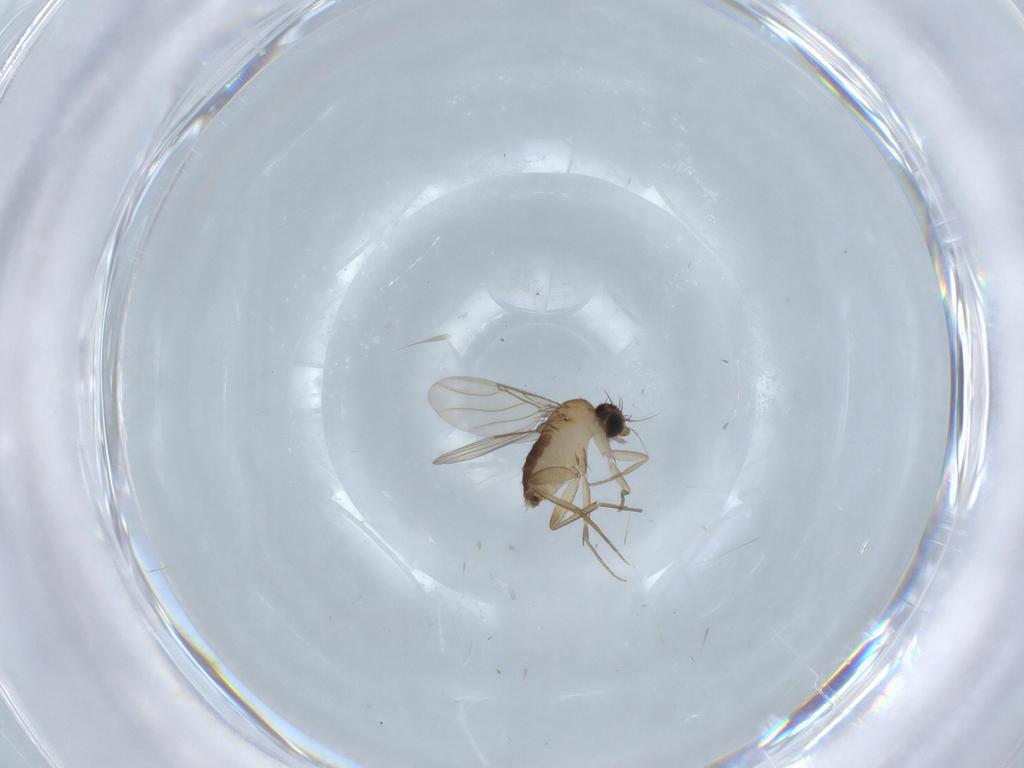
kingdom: Animalia
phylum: Arthropoda
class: Insecta
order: Diptera
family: Phoridae
